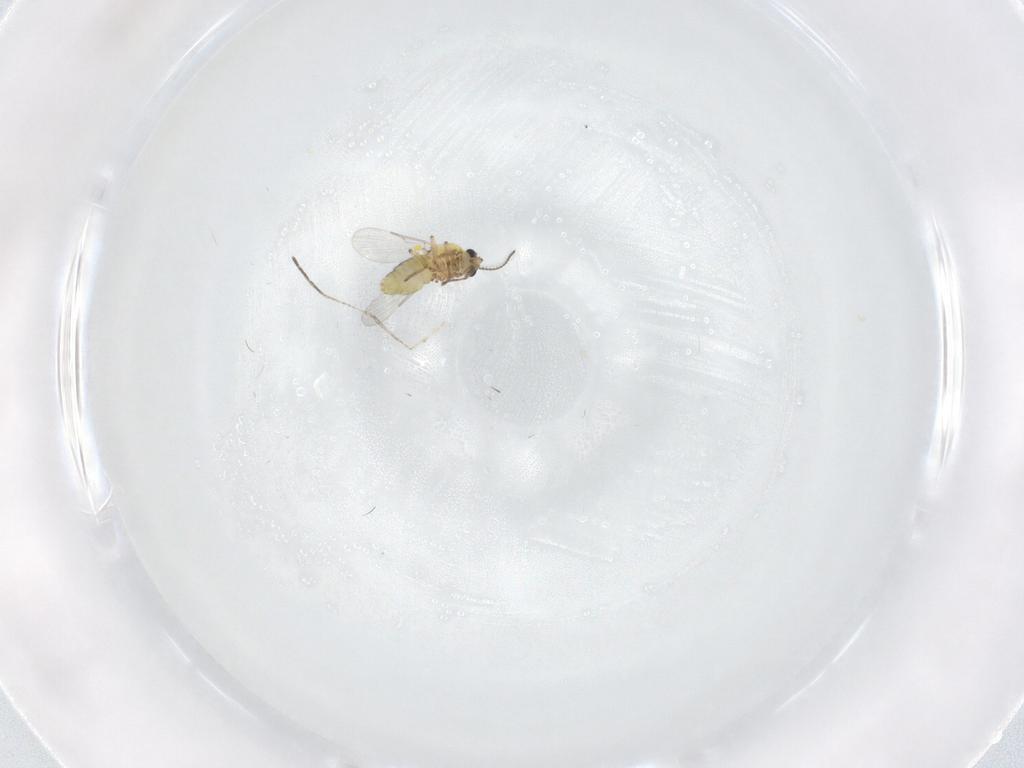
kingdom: Animalia
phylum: Arthropoda
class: Insecta
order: Diptera
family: Ceratopogonidae
